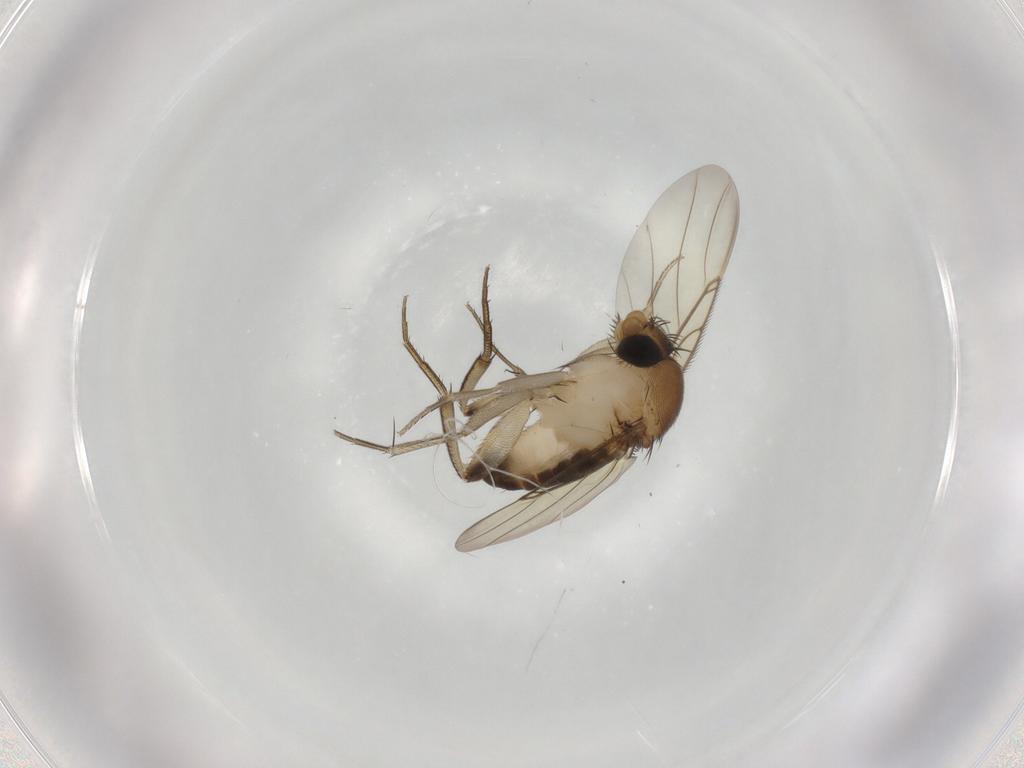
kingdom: Animalia
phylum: Arthropoda
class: Insecta
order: Diptera
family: Phoridae
